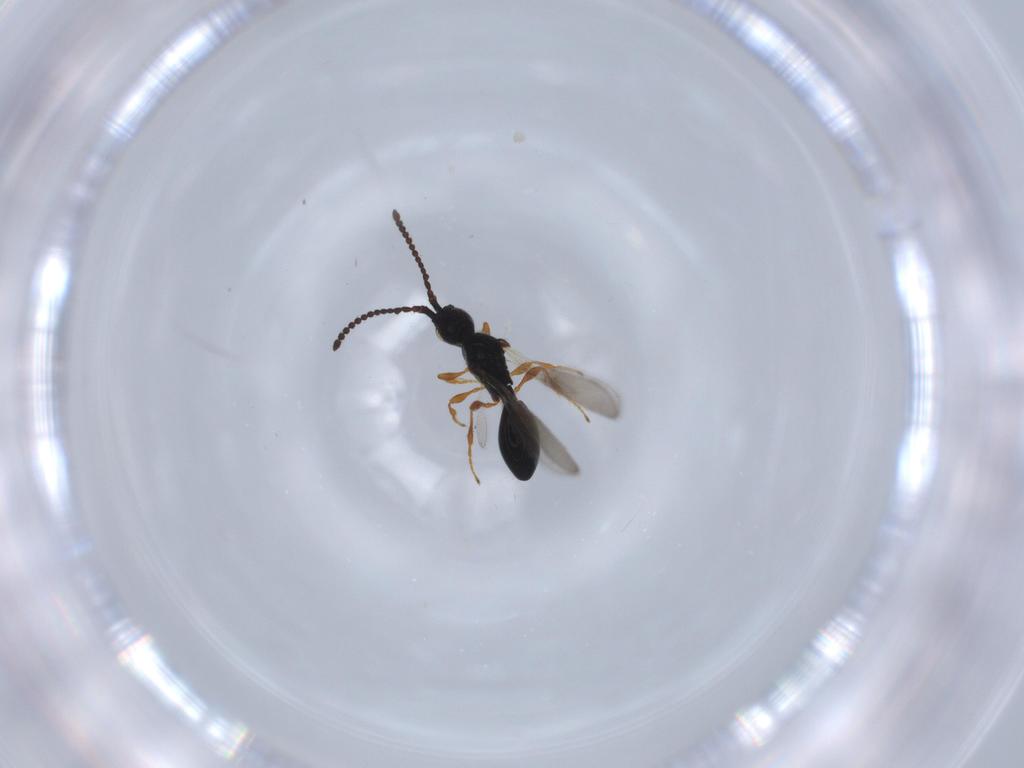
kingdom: Animalia
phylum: Arthropoda
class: Insecta
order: Hymenoptera
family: Diapriidae
